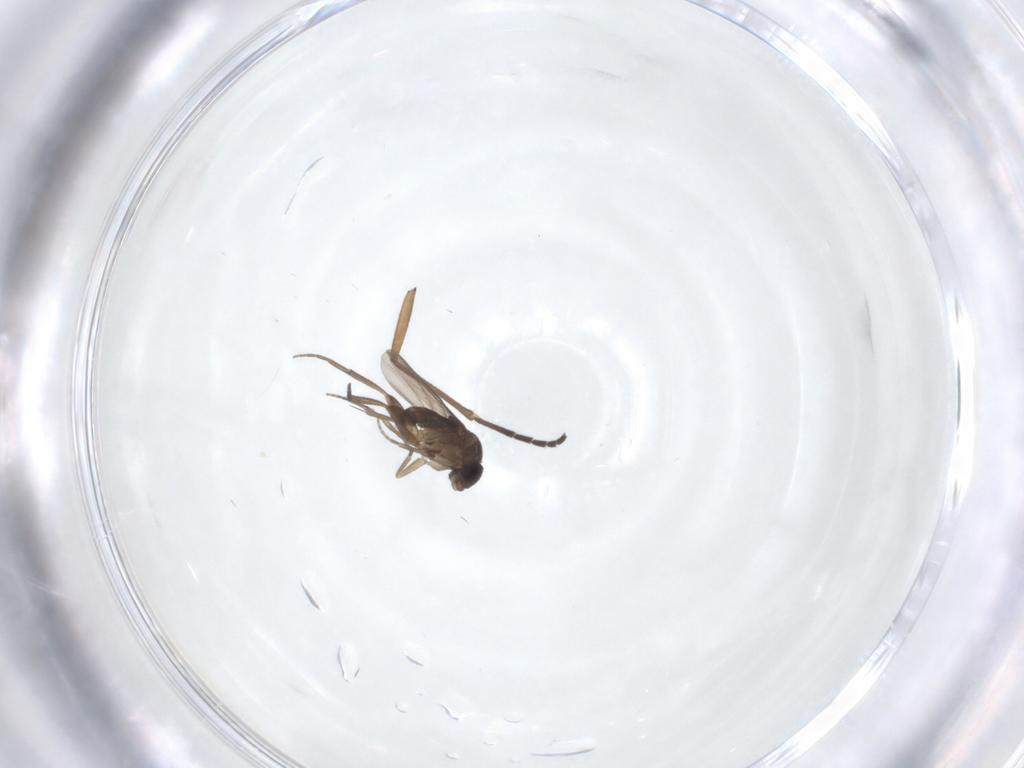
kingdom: Animalia
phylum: Arthropoda
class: Insecta
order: Diptera
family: Phoridae
